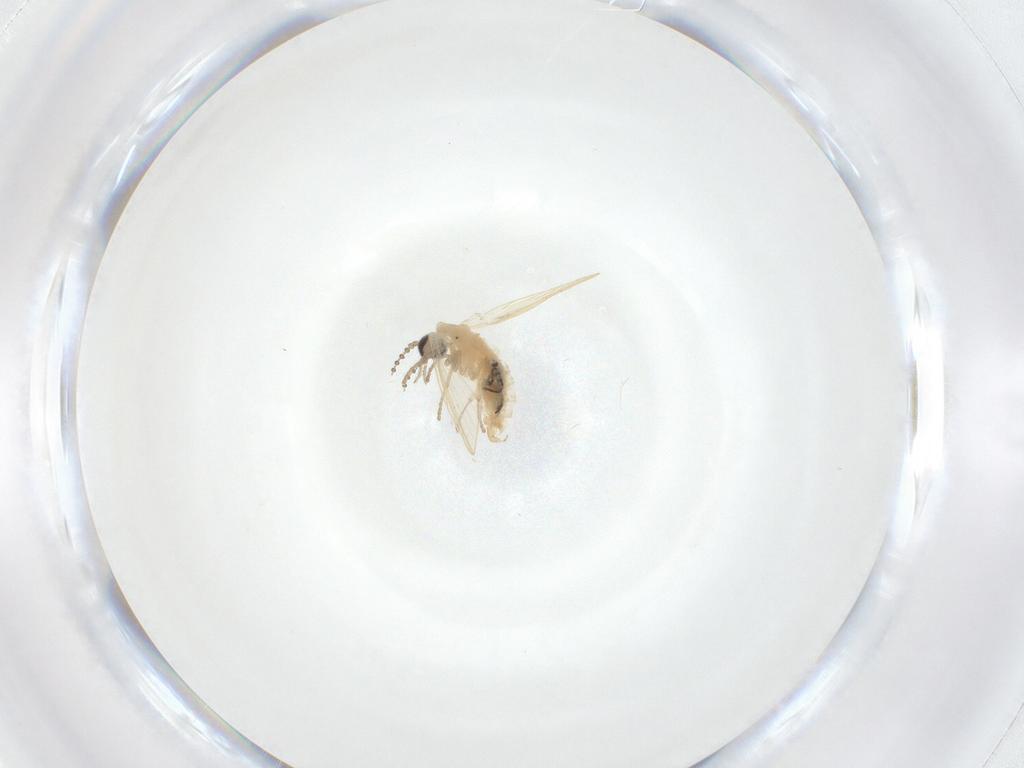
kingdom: Animalia
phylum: Arthropoda
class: Insecta
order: Diptera
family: Psychodidae
